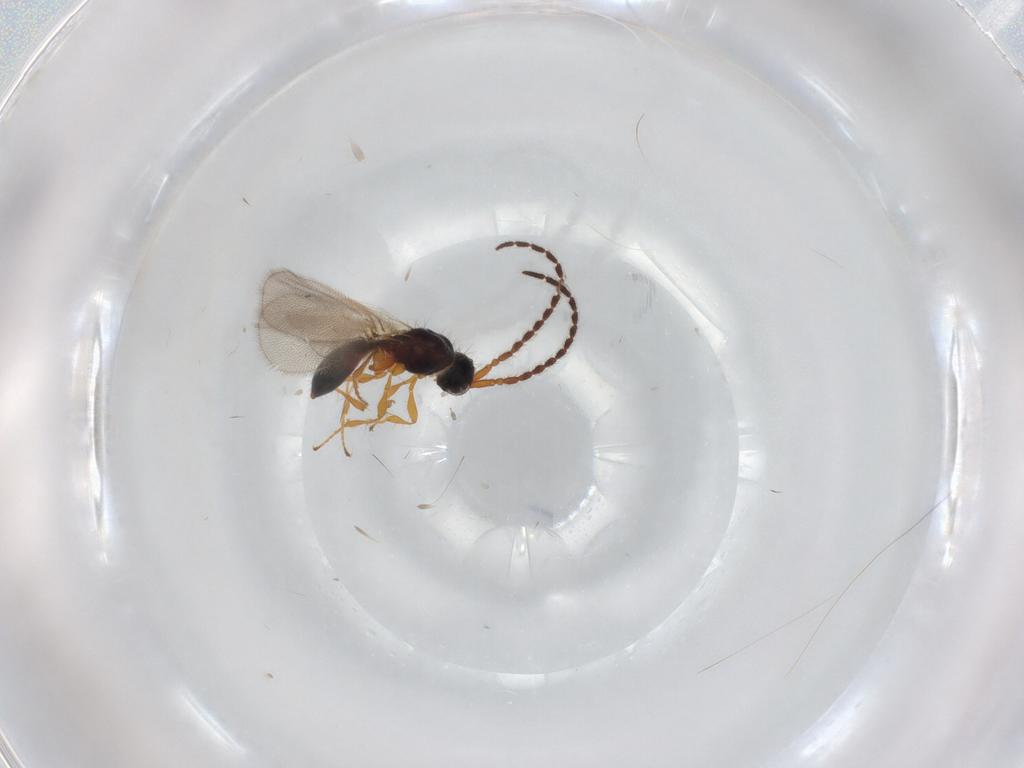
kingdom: Animalia
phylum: Arthropoda
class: Insecta
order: Hymenoptera
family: Diapriidae
